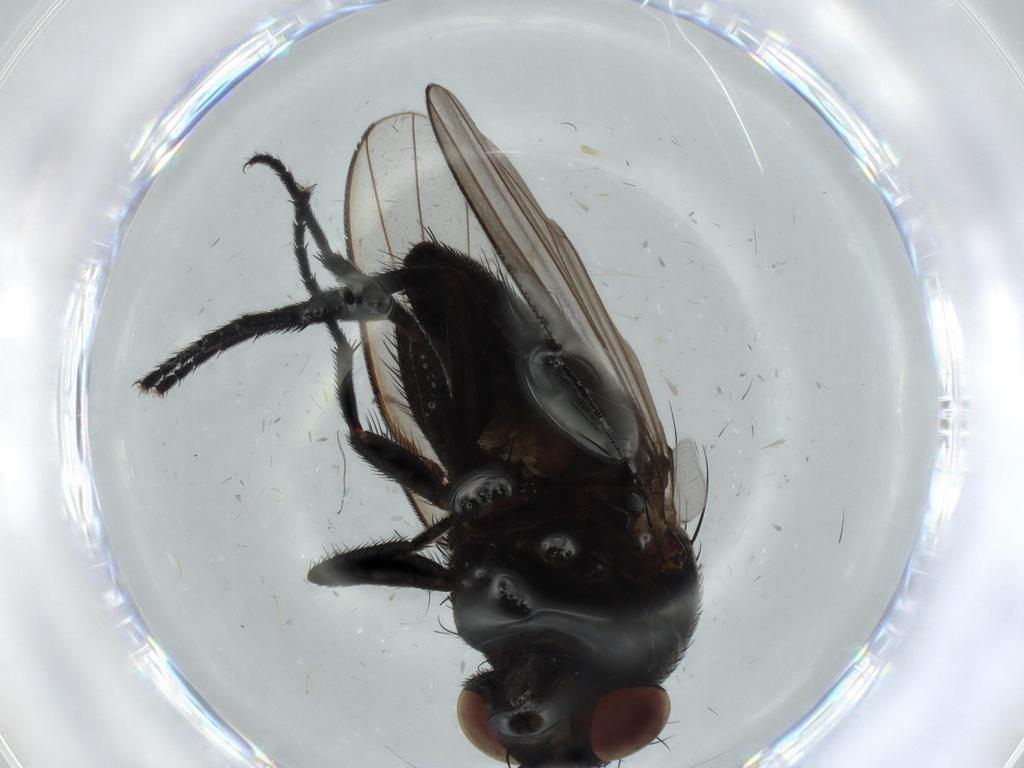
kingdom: Animalia
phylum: Arthropoda
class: Insecta
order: Diptera
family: Milichiidae
